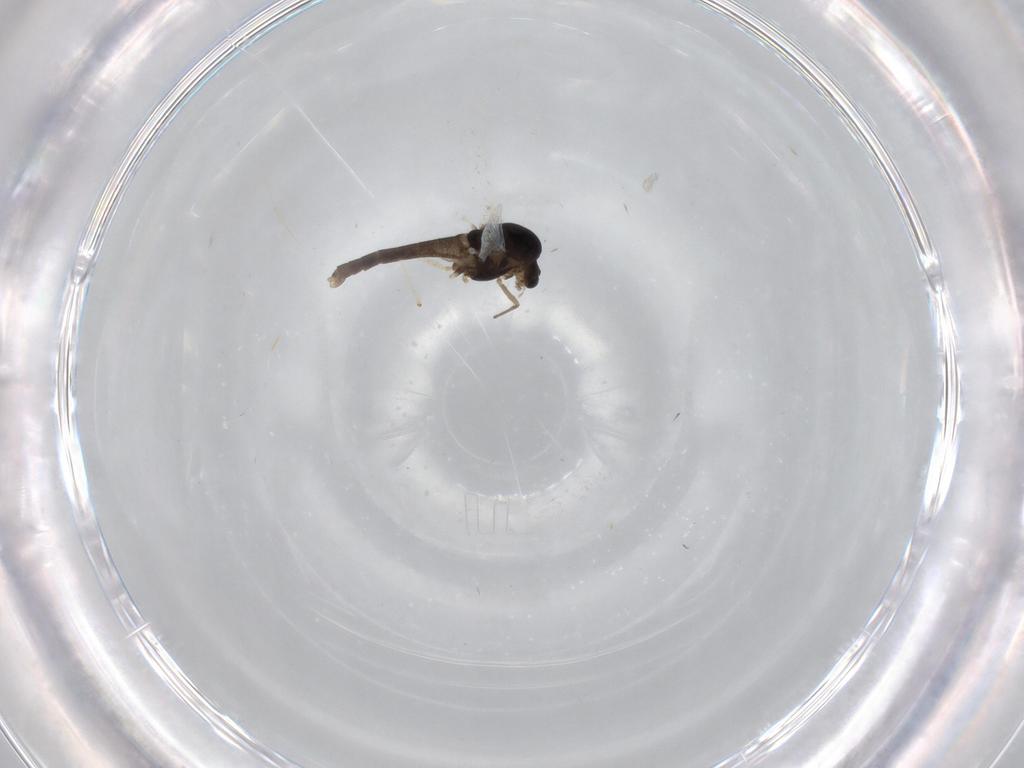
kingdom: Animalia
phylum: Arthropoda
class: Insecta
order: Diptera
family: Chironomidae
